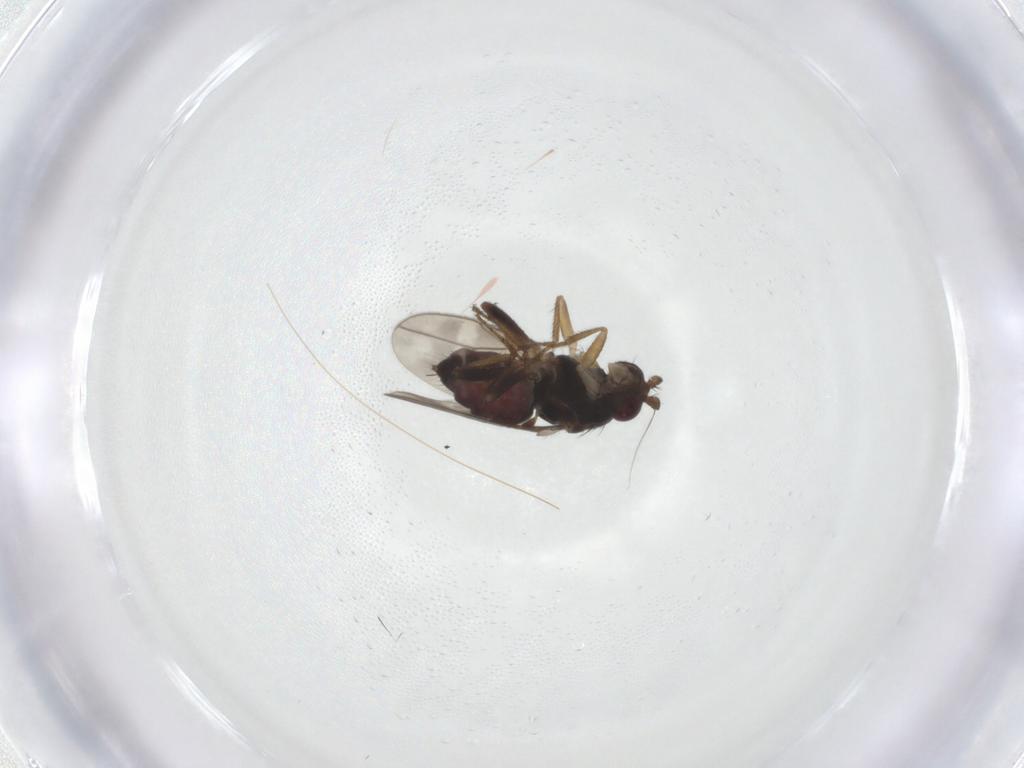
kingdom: Animalia
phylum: Arthropoda
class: Insecta
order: Diptera
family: Sphaeroceridae
